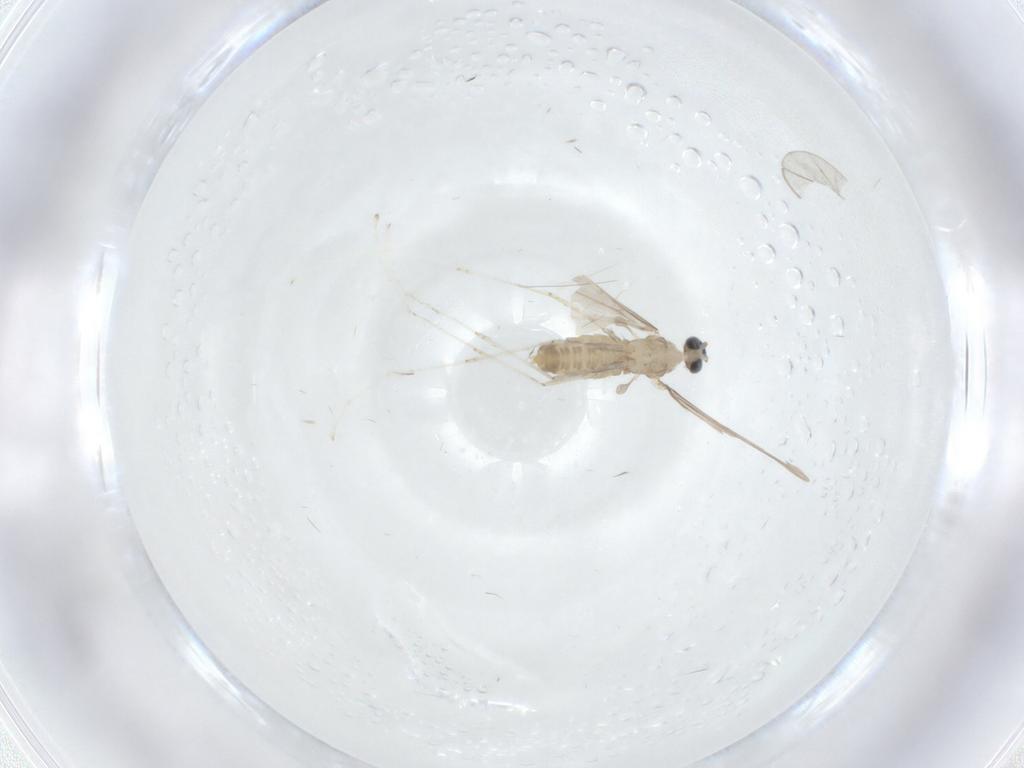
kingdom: Animalia
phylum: Arthropoda
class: Insecta
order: Diptera
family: Cecidomyiidae
